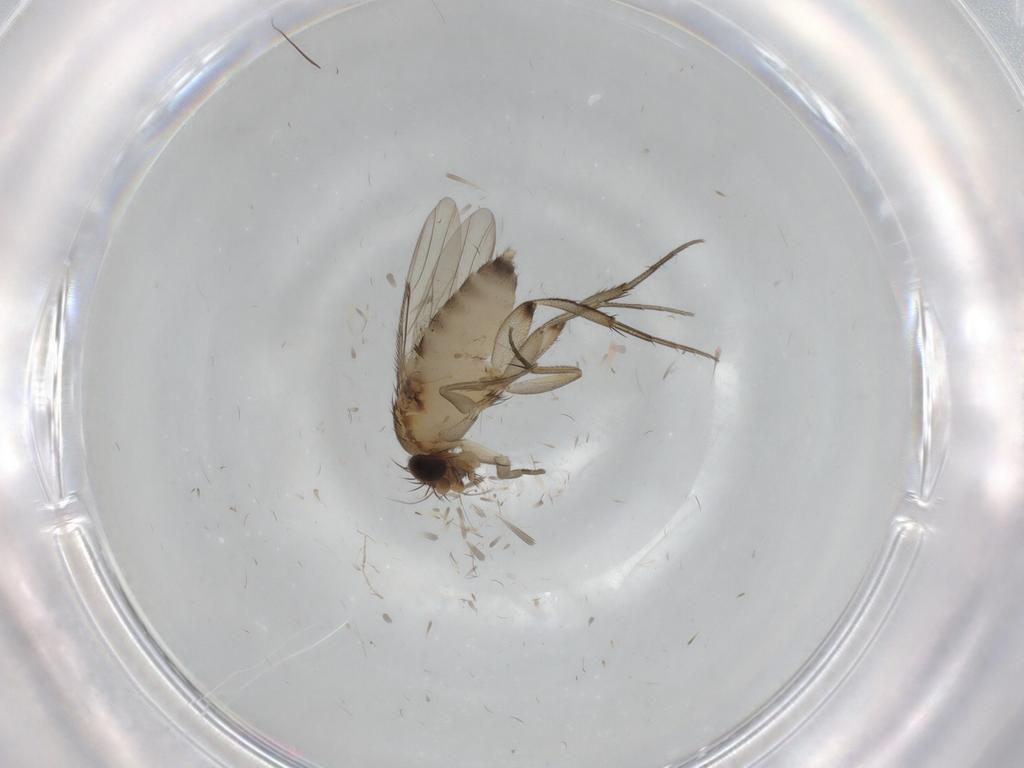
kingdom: Animalia
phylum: Arthropoda
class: Insecta
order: Diptera
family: Phoridae
